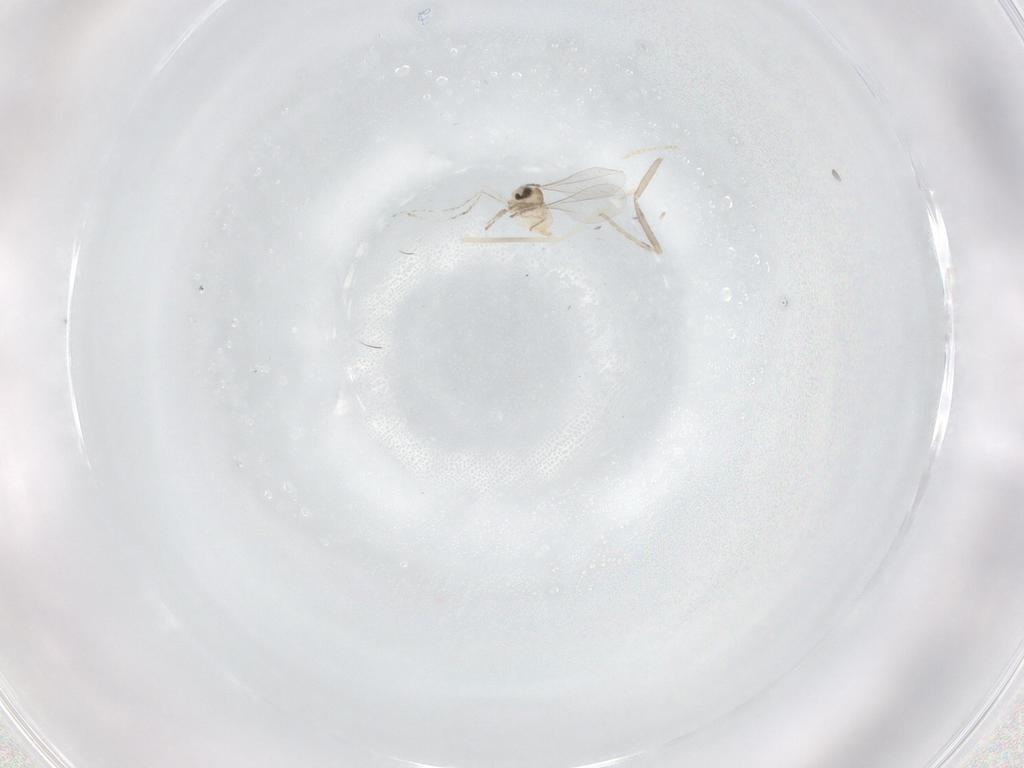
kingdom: Animalia
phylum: Arthropoda
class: Insecta
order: Diptera
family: Cecidomyiidae
